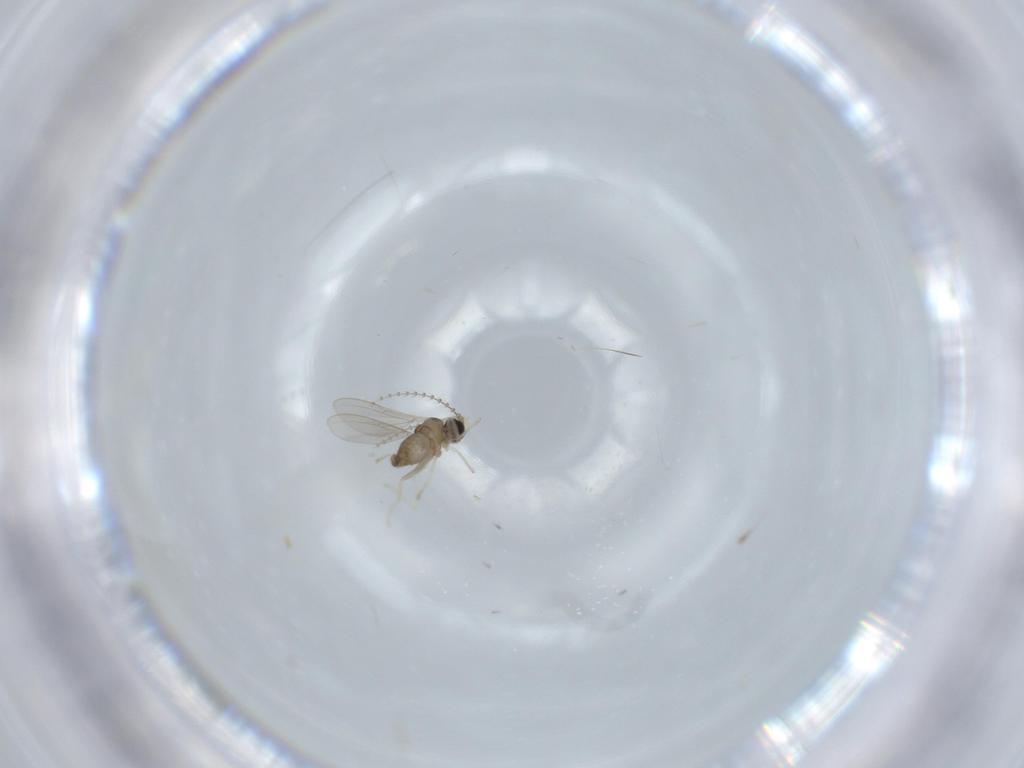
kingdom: Animalia
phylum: Arthropoda
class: Insecta
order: Diptera
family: Cecidomyiidae
